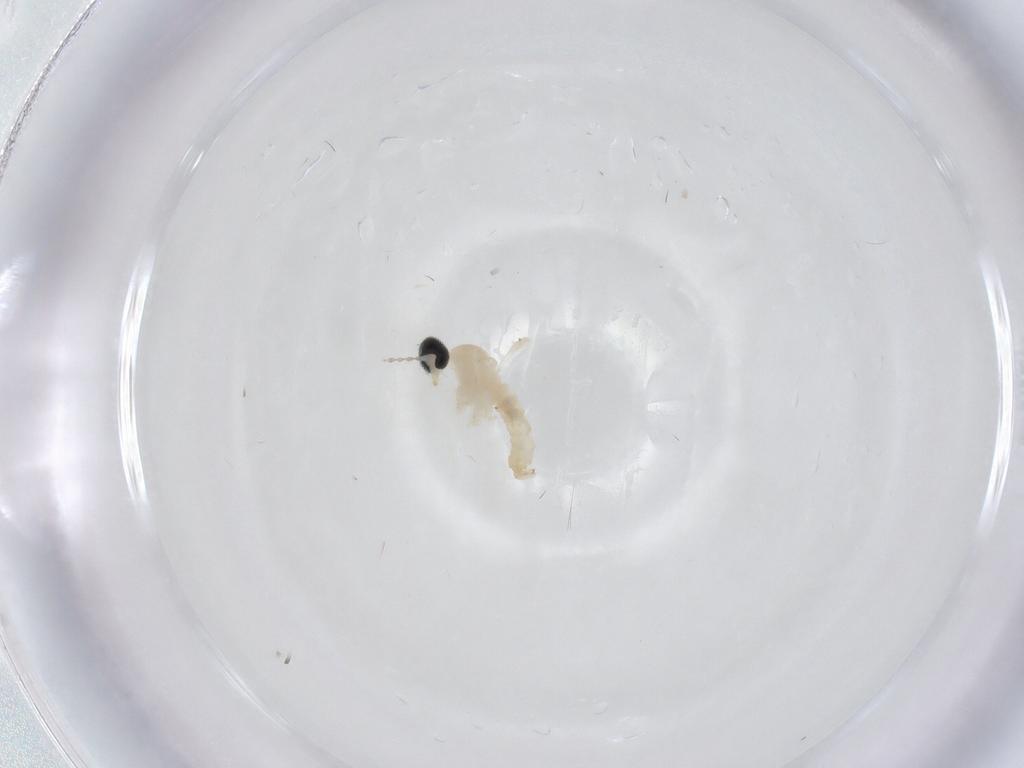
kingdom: Animalia
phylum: Arthropoda
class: Insecta
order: Diptera
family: Cecidomyiidae
